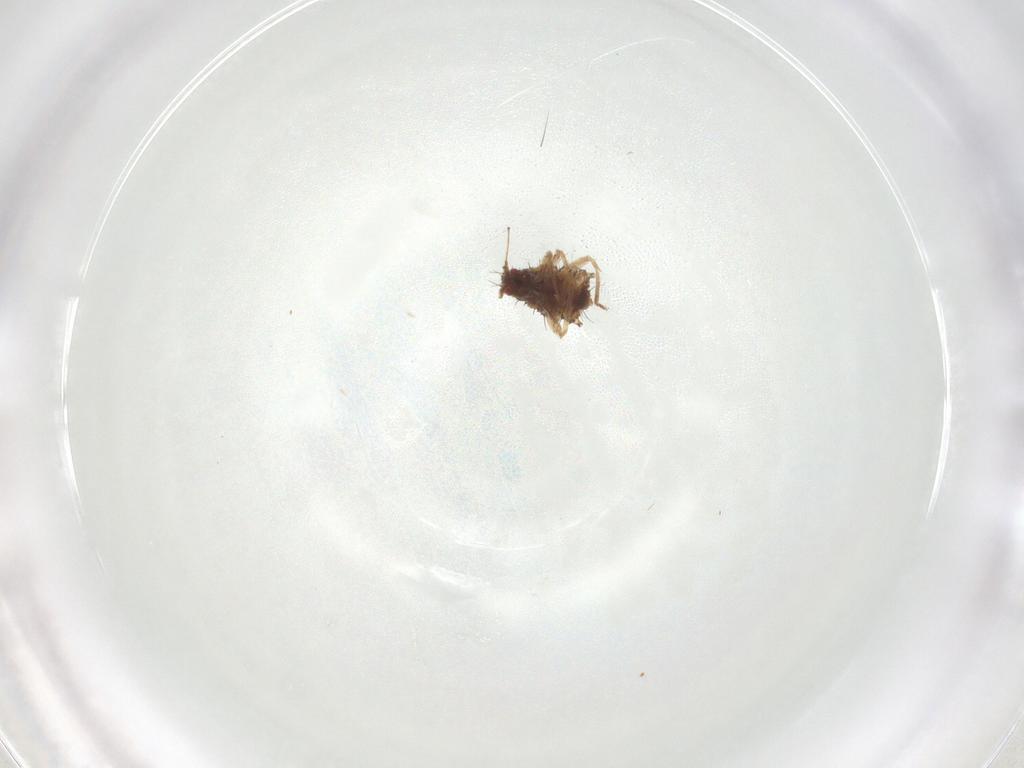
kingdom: Animalia
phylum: Arthropoda
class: Insecta
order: Hemiptera
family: Aphididae
